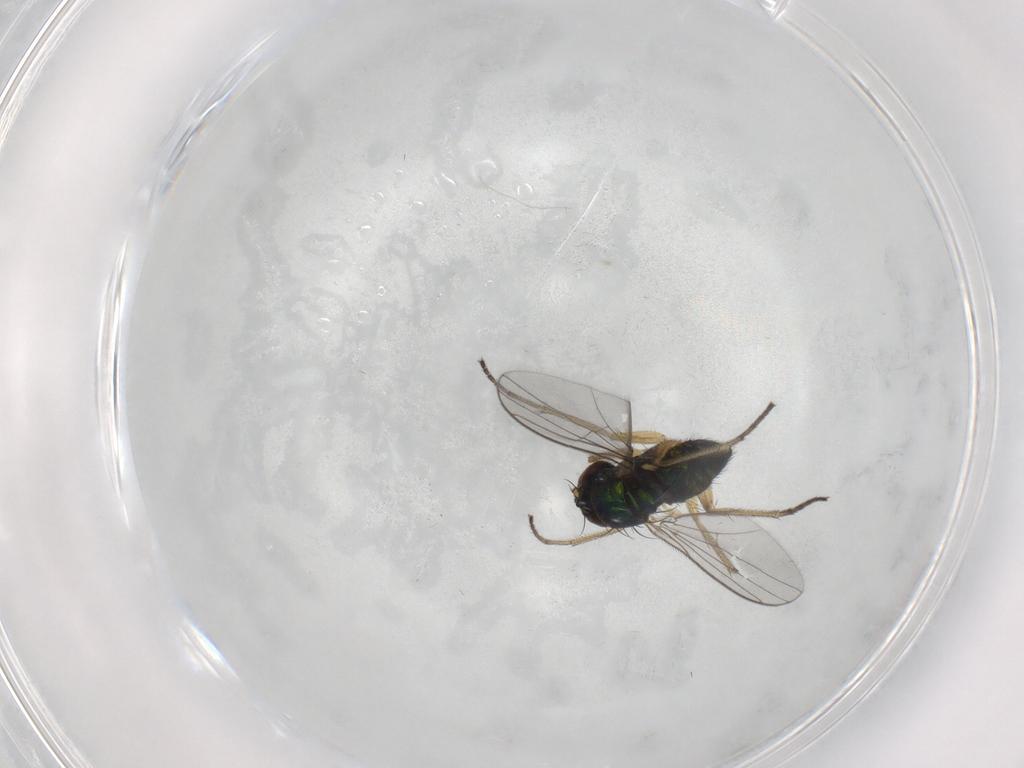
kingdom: Animalia
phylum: Arthropoda
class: Insecta
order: Diptera
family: Dolichopodidae
